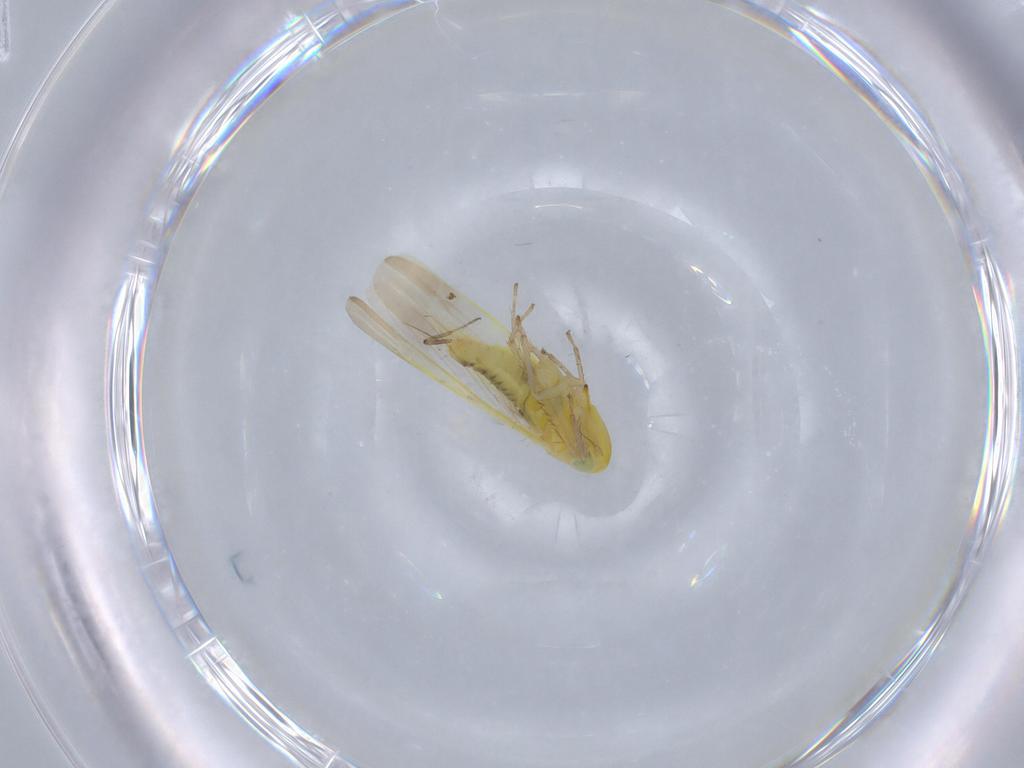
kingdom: Animalia
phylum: Arthropoda
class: Insecta
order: Hemiptera
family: Cicadellidae
